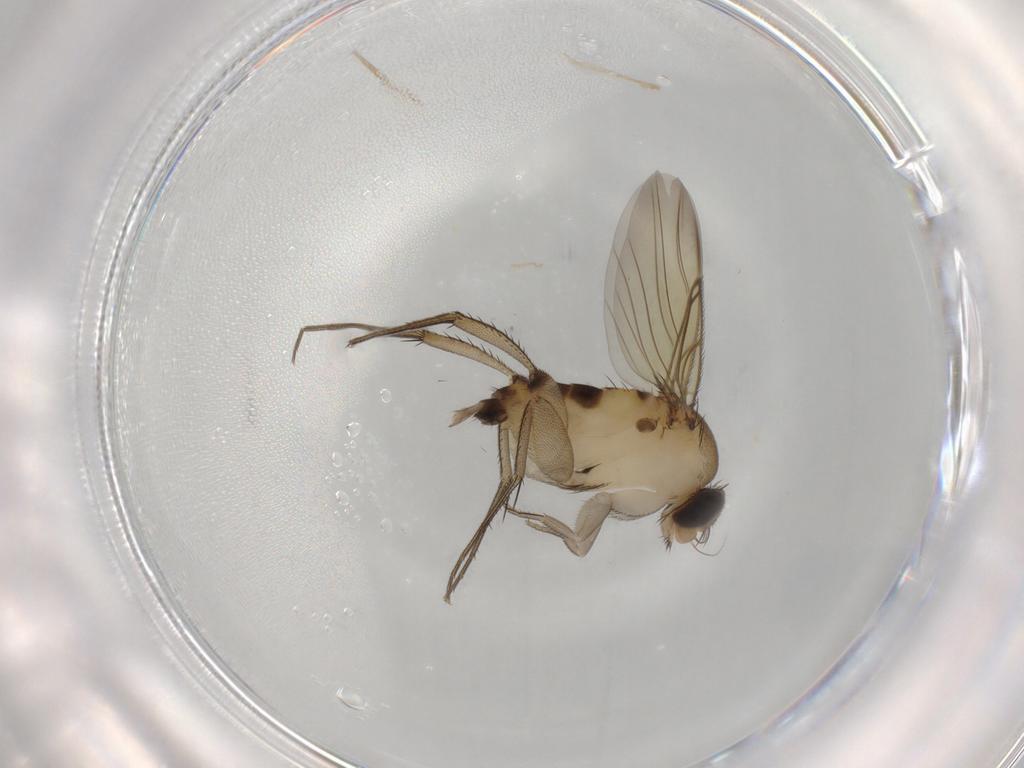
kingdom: Animalia
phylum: Arthropoda
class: Insecta
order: Diptera
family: Phoridae
